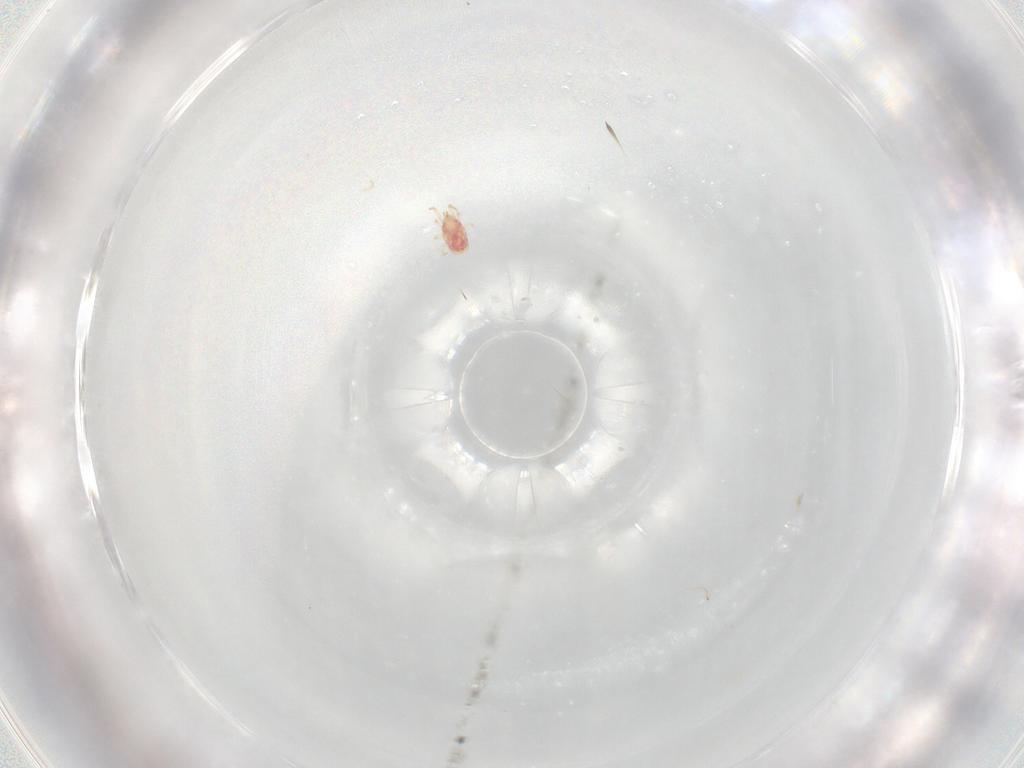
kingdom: Animalia
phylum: Arthropoda
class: Arachnida
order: Mesostigmata
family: Phytoseiidae
